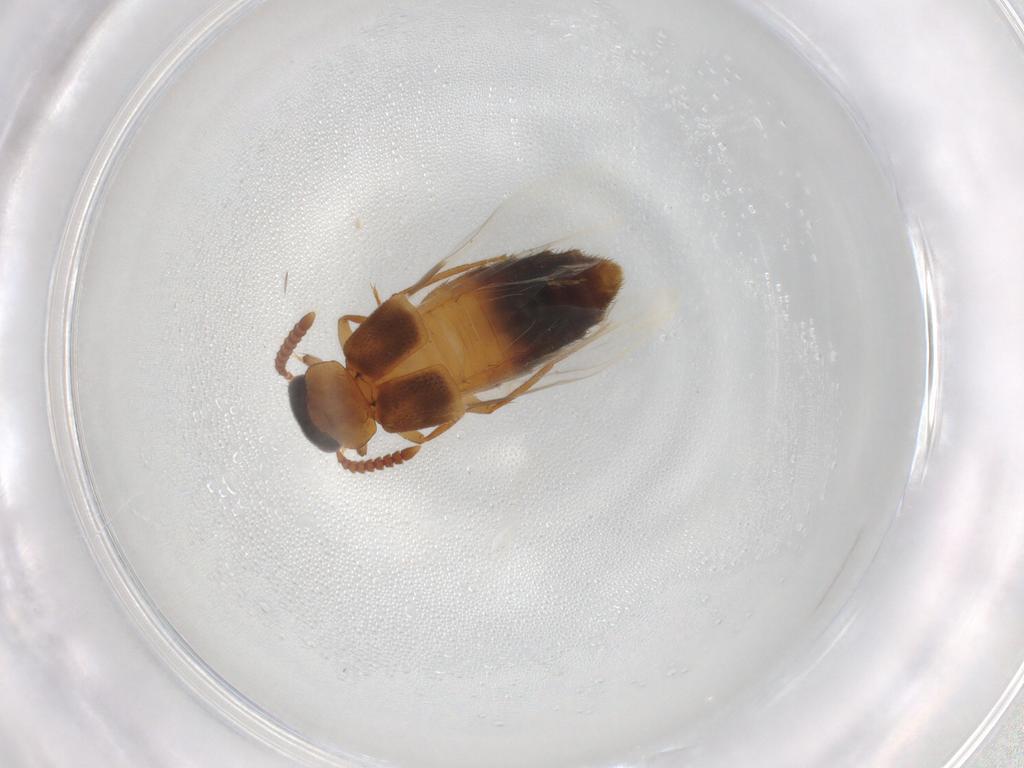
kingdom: Animalia
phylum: Arthropoda
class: Insecta
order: Coleoptera
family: Staphylinidae
